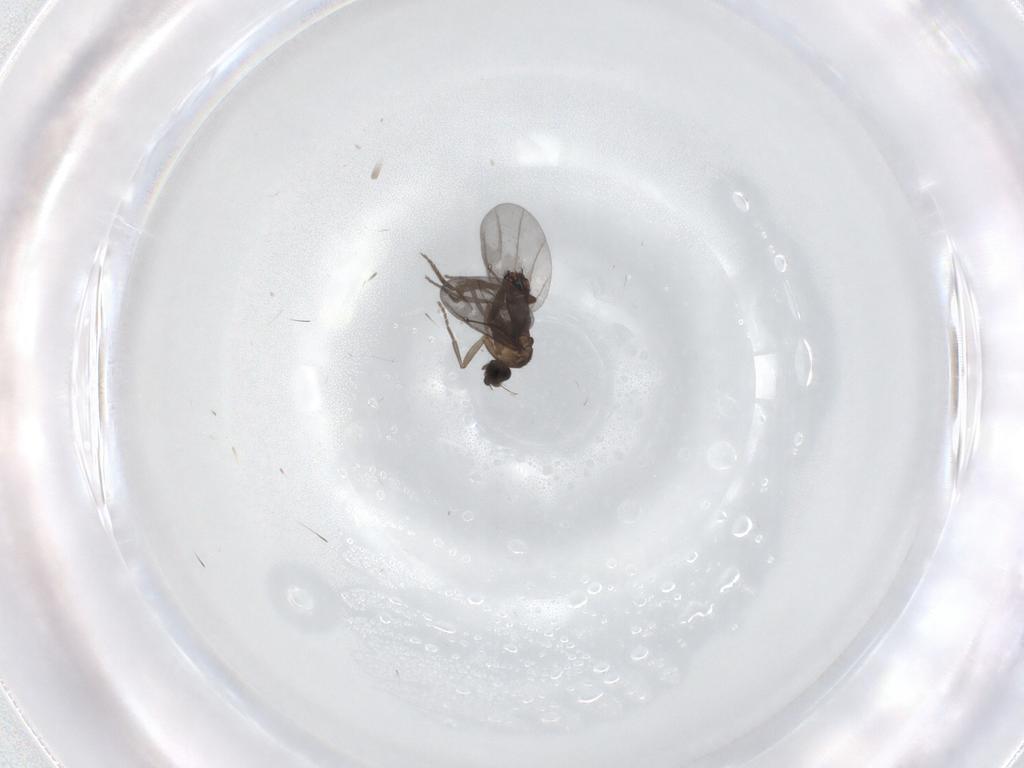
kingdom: Animalia
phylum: Arthropoda
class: Insecta
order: Diptera
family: Phoridae
